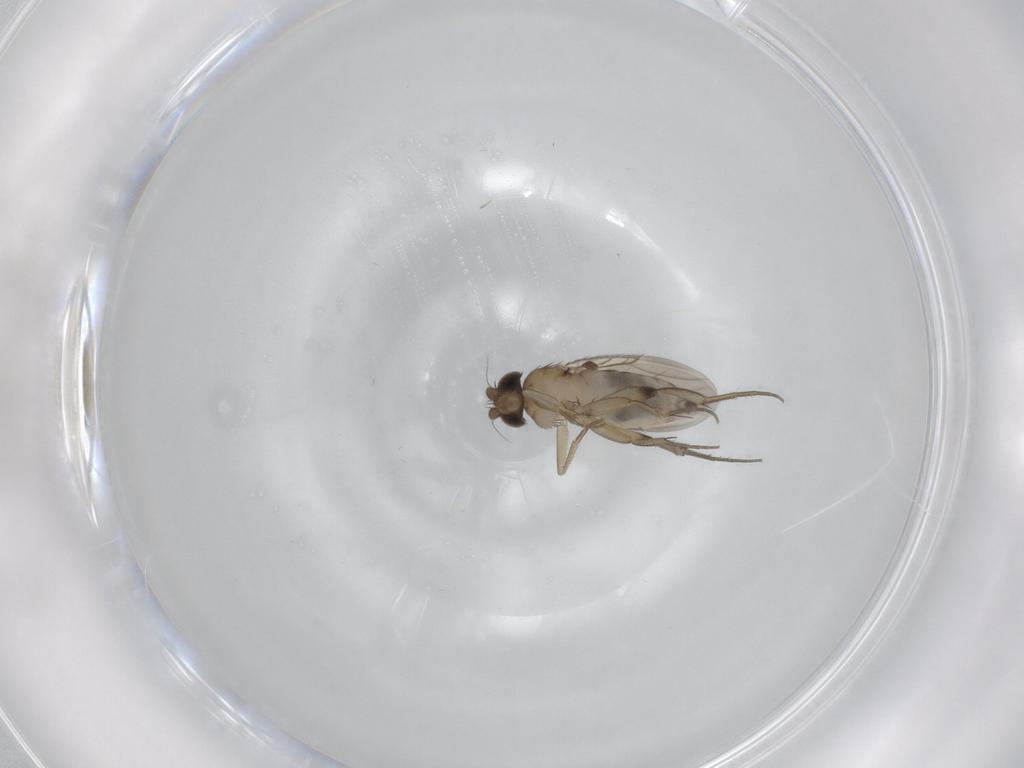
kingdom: Animalia
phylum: Arthropoda
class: Insecta
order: Diptera
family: Phoridae
